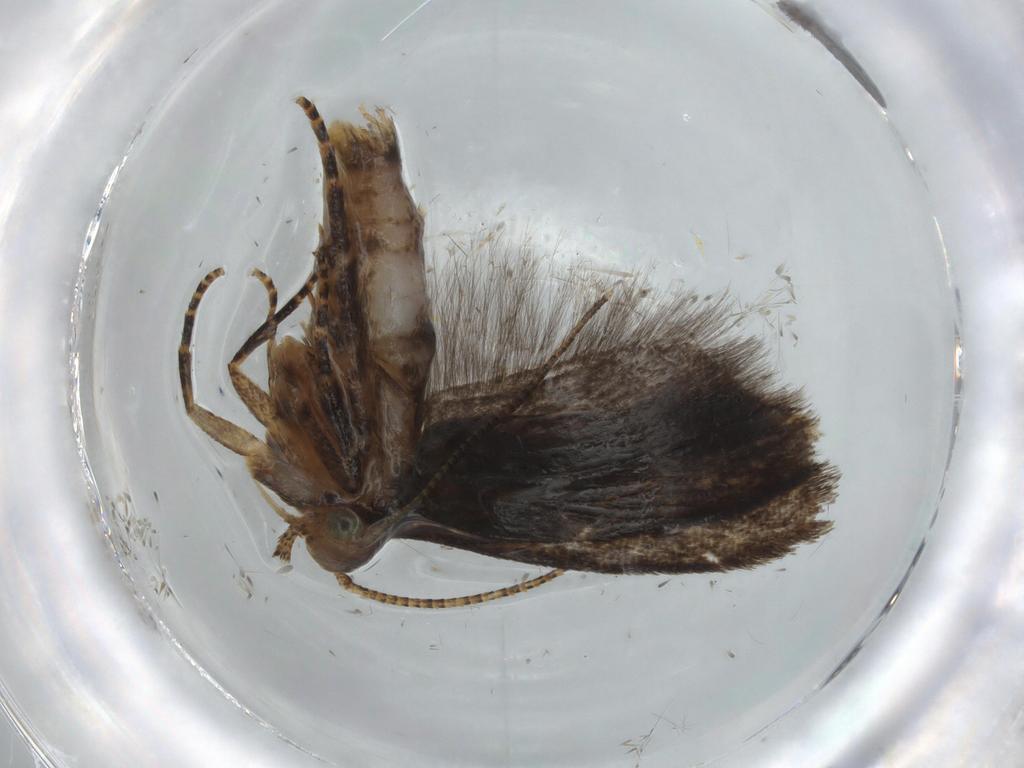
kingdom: Animalia
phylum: Arthropoda
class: Insecta
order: Lepidoptera
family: Gelechiidae
